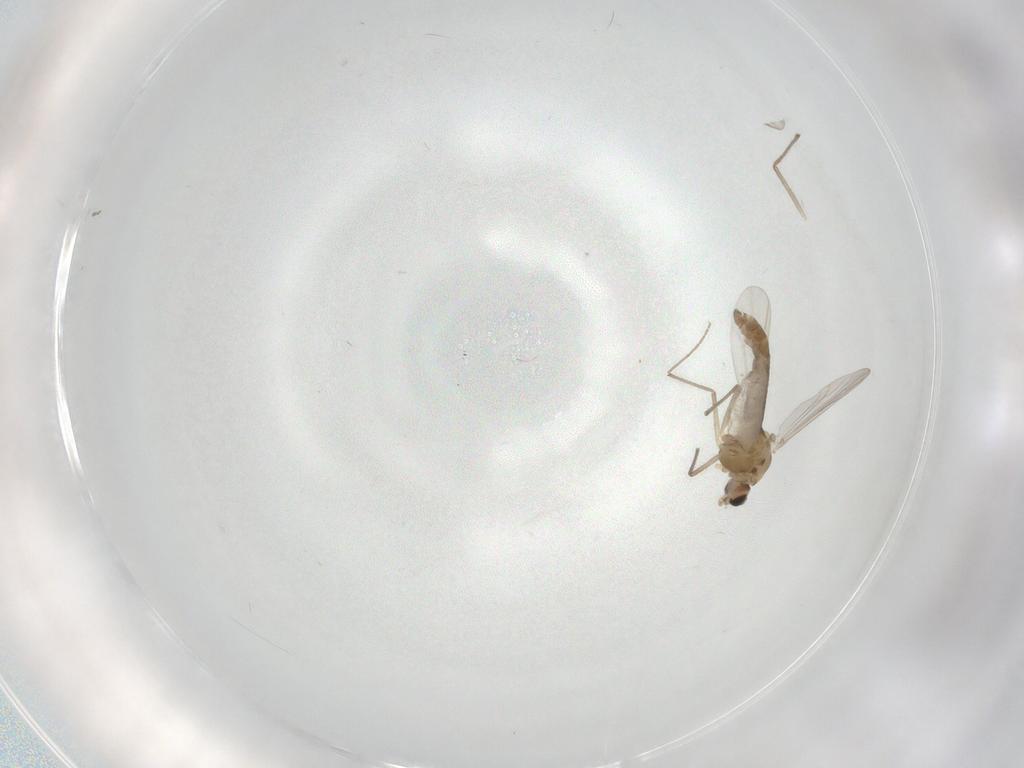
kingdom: Animalia
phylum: Arthropoda
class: Insecta
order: Diptera
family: Chironomidae
